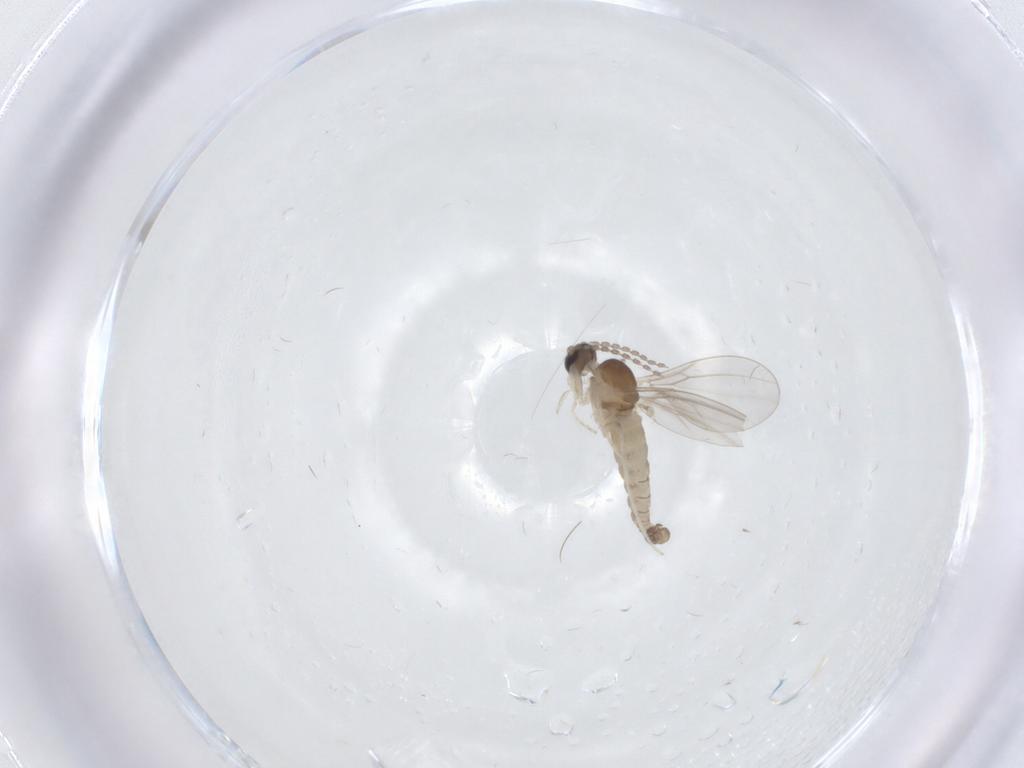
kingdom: Animalia
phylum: Arthropoda
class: Insecta
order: Diptera
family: Cecidomyiidae
